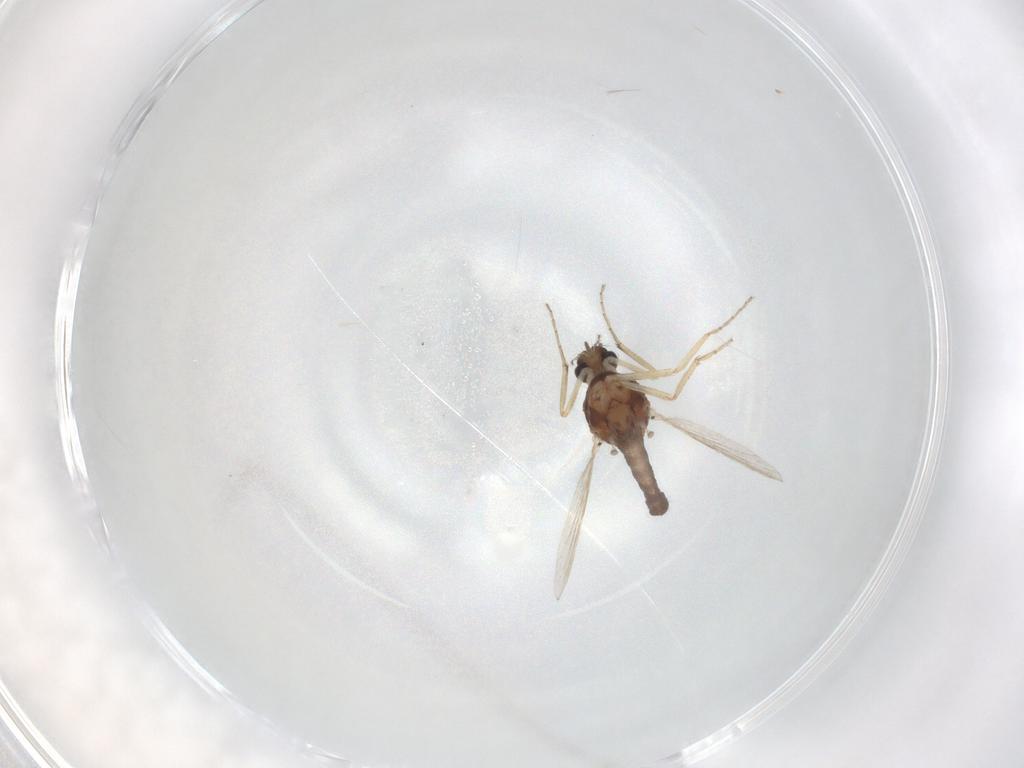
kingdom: Animalia
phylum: Arthropoda
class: Insecta
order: Diptera
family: Ceratopogonidae
